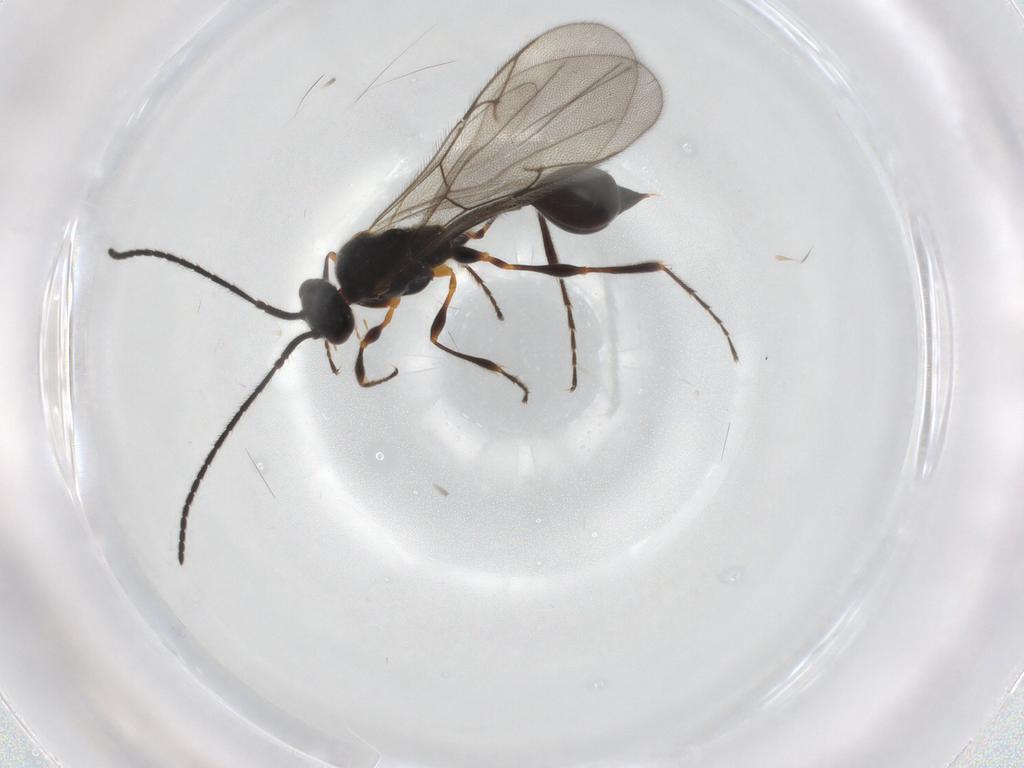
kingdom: Animalia
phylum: Arthropoda
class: Insecta
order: Hymenoptera
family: Diapriidae
